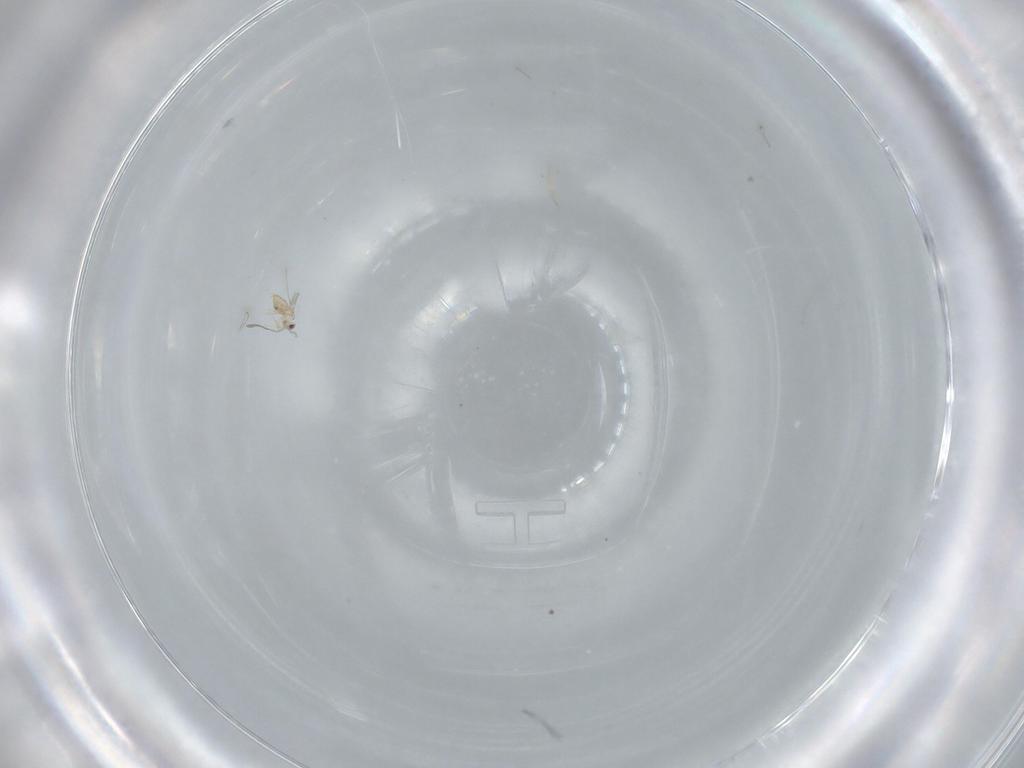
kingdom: Animalia
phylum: Arthropoda
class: Insecta
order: Hymenoptera
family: Mymaridae
